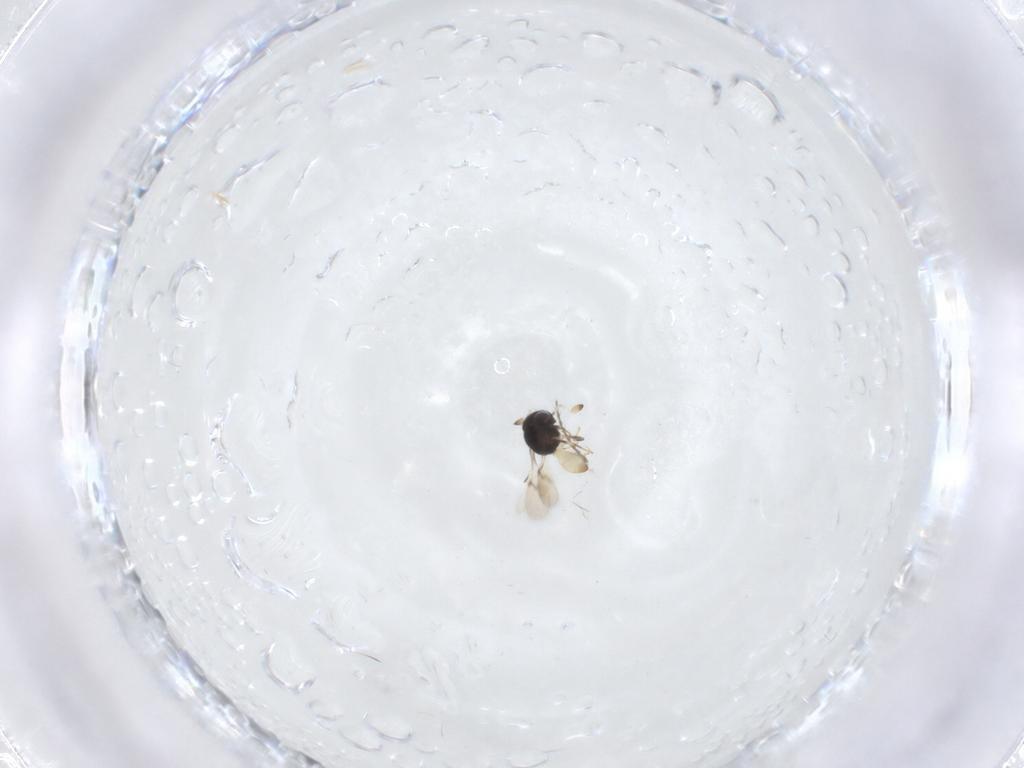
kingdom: Animalia
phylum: Arthropoda
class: Insecta
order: Hymenoptera
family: Scelionidae
